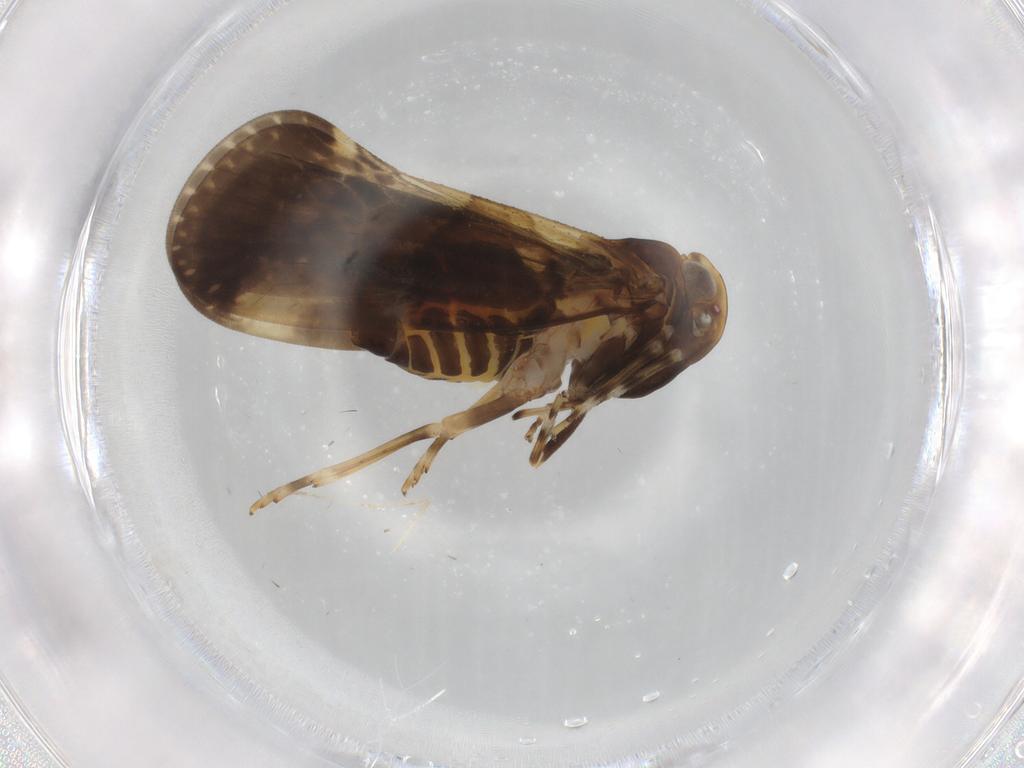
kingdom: Animalia
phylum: Arthropoda
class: Insecta
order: Hemiptera
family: Cixiidae
